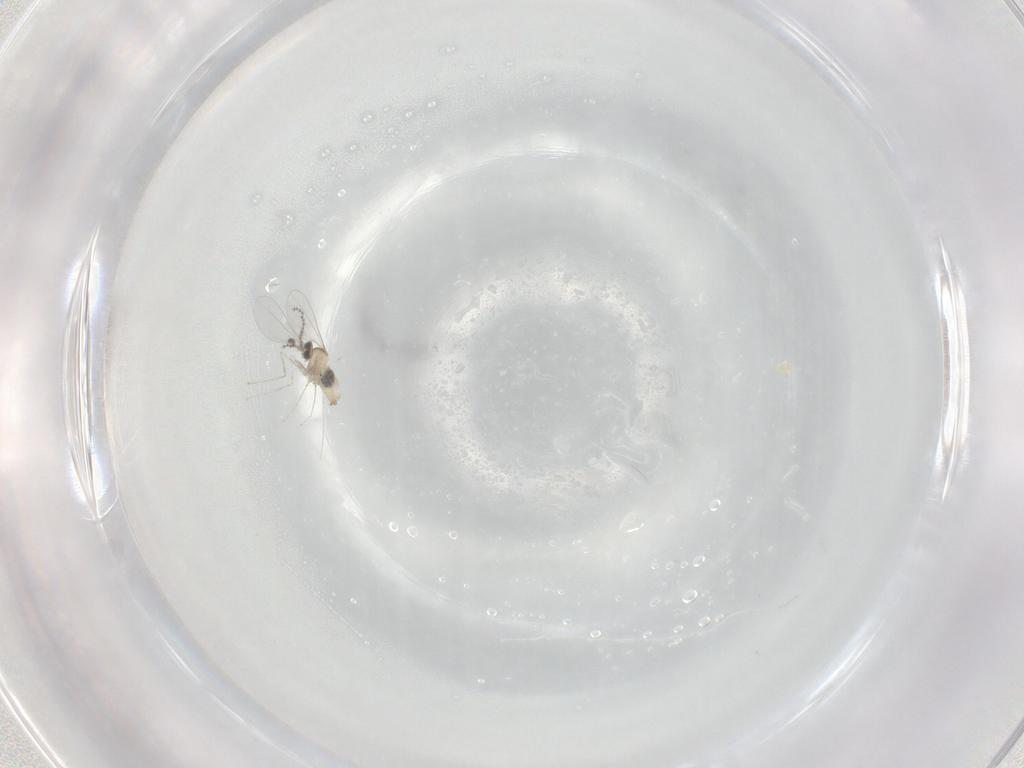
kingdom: Animalia
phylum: Arthropoda
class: Insecta
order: Diptera
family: Cecidomyiidae
